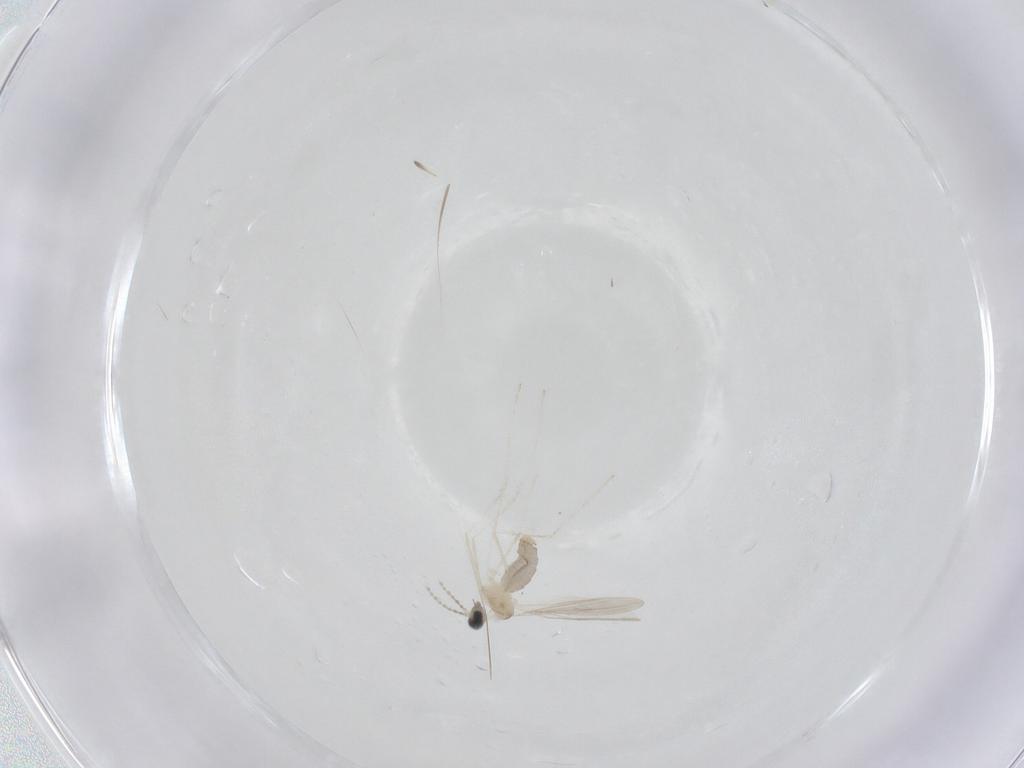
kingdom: Animalia
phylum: Arthropoda
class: Insecta
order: Diptera
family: Cecidomyiidae
